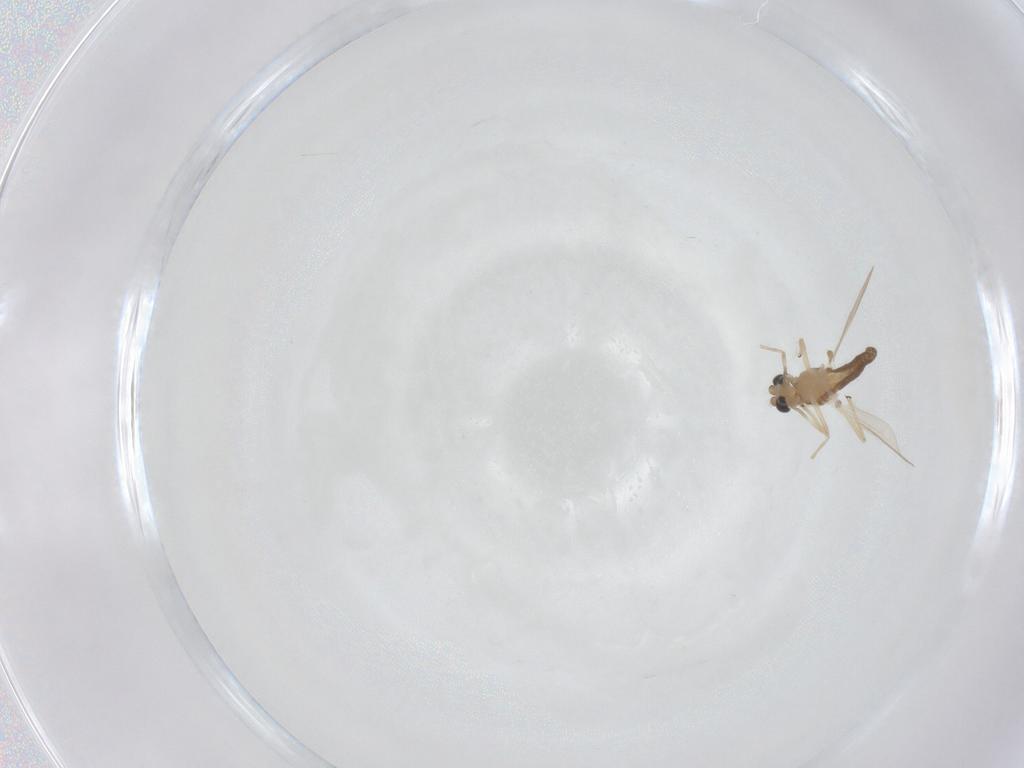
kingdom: Animalia
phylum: Arthropoda
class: Insecta
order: Diptera
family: Chironomidae
